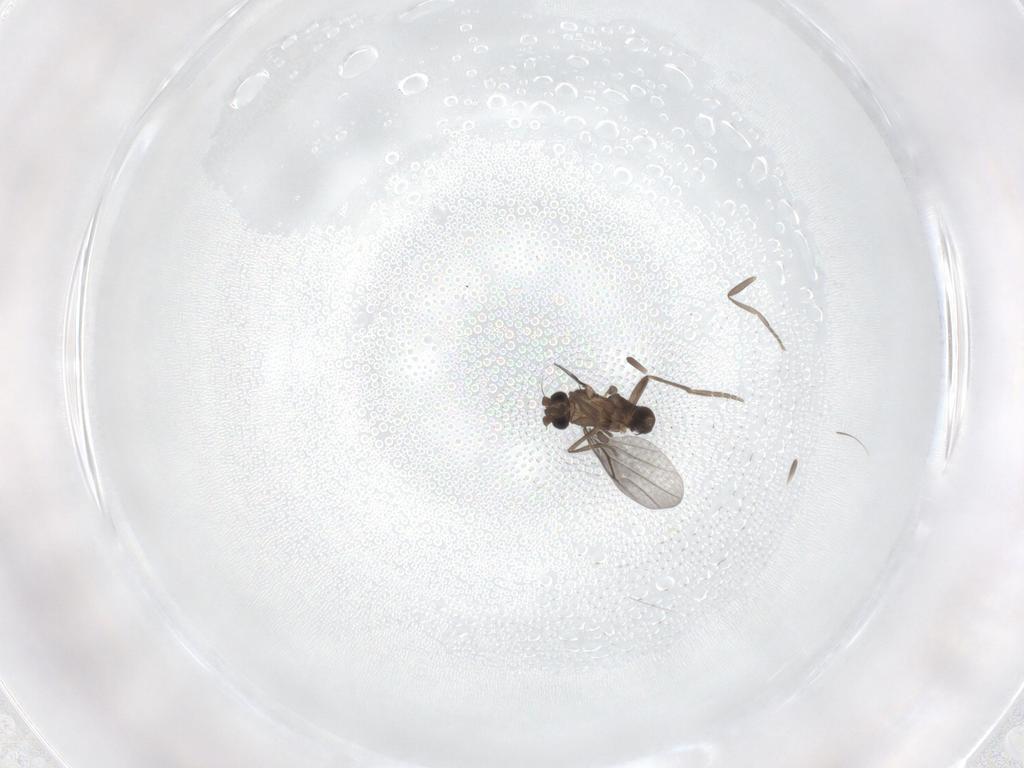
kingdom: Animalia
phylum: Arthropoda
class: Insecta
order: Diptera
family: Phoridae
